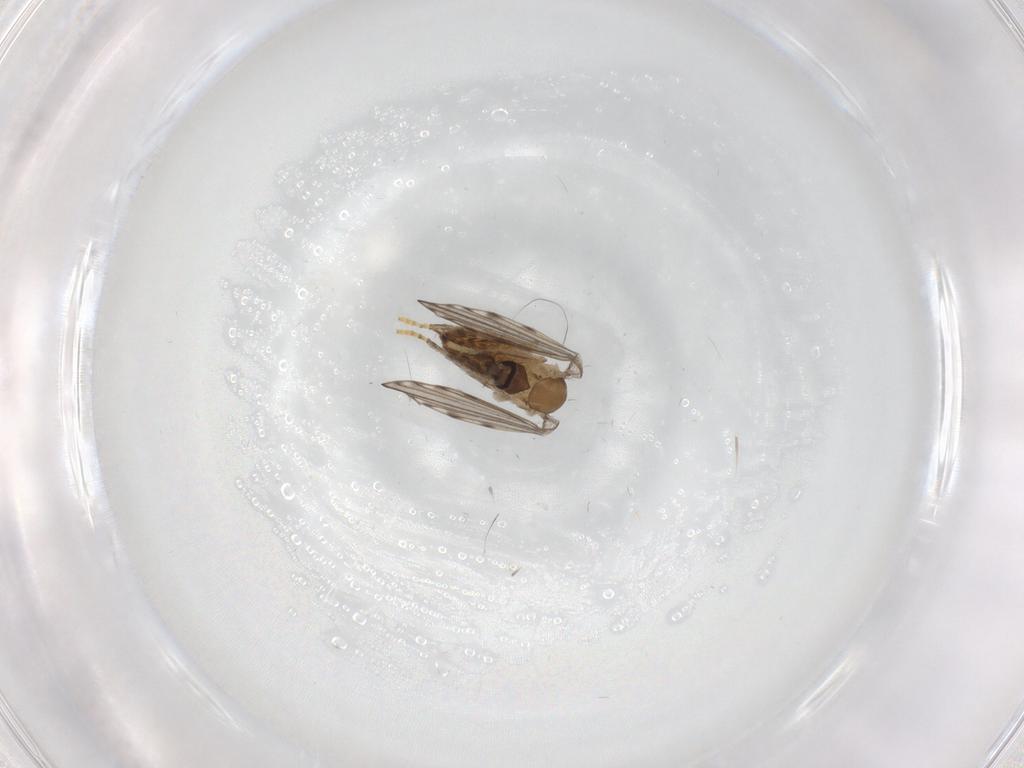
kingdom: Animalia
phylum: Arthropoda
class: Insecta
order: Diptera
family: Psychodidae
